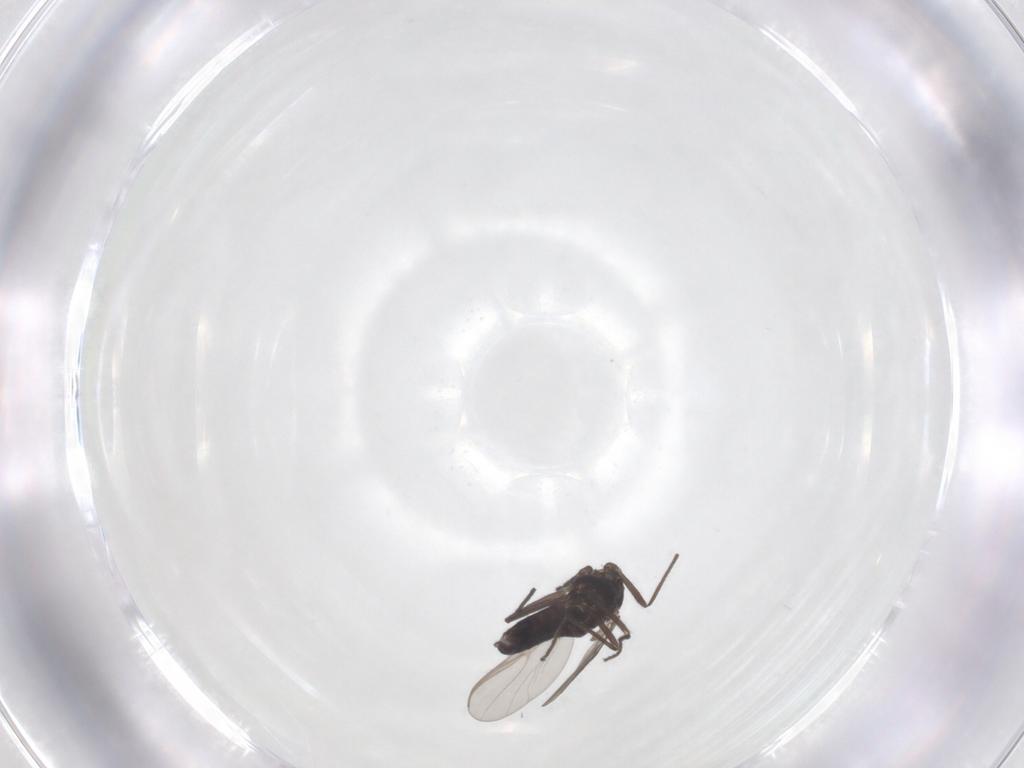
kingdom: Animalia
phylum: Arthropoda
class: Insecta
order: Diptera
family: Chironomidae
